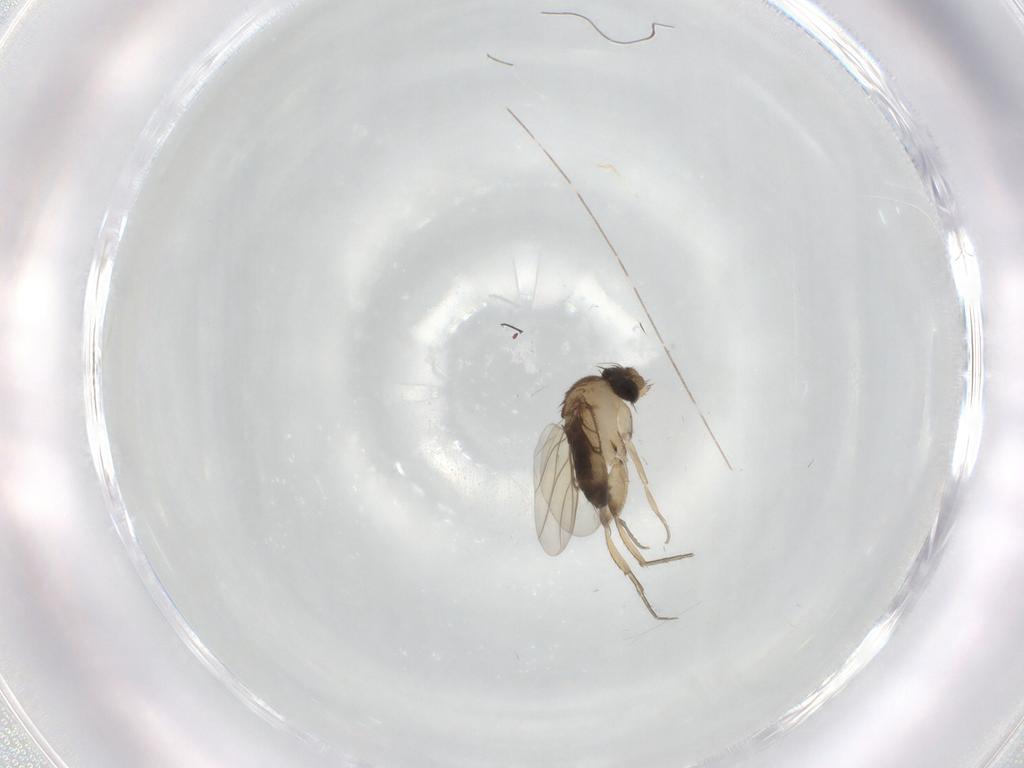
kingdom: Animalia
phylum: Arthropoda
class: Insecta
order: Diptera
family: Phoridae
